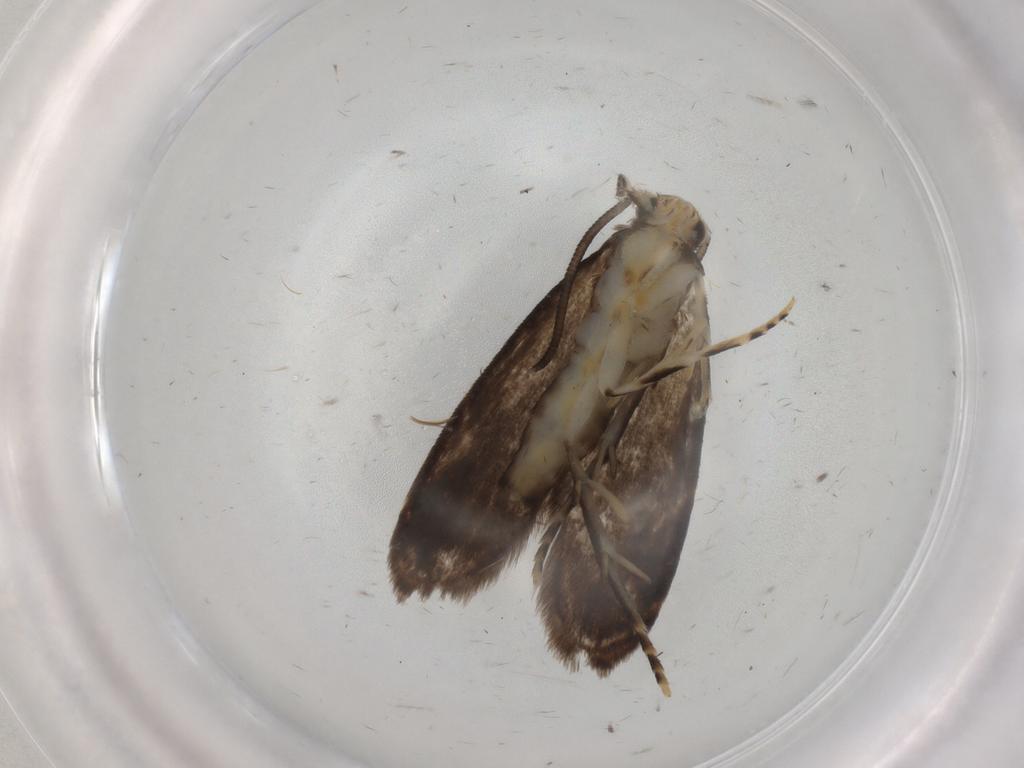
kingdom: Animalia
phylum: Arthropoda
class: Insecta
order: Lepidoptera
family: Dryadaulidae
